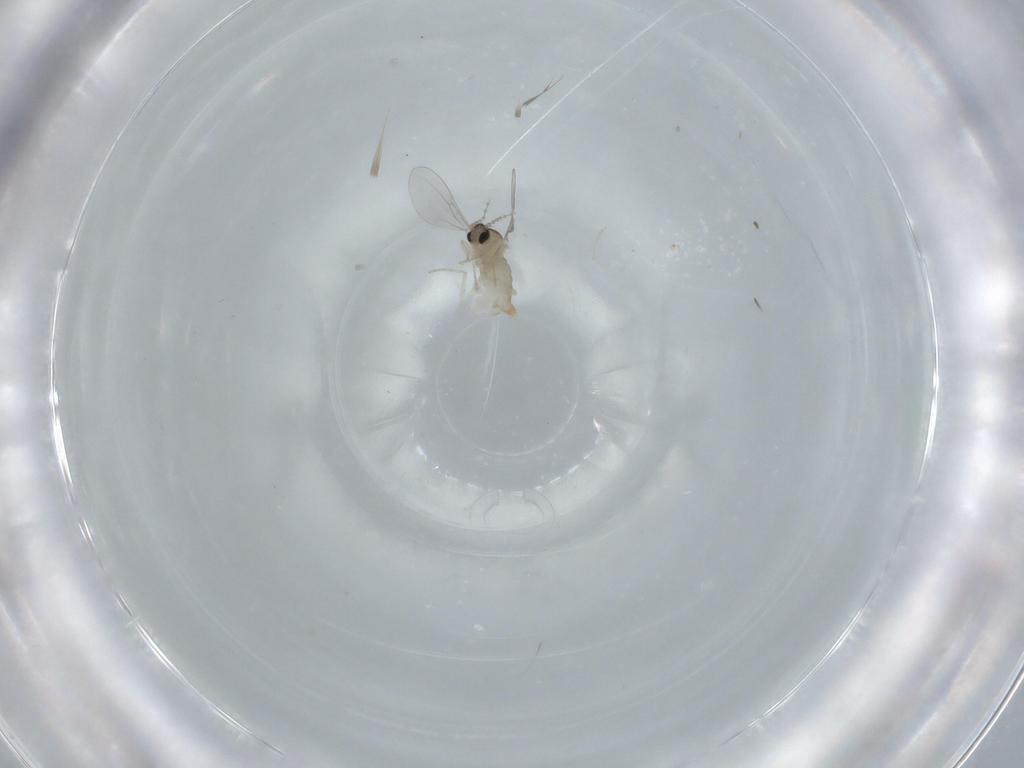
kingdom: Animalia
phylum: Arthropoda
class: Insecta
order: Diptera
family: Cecidomyiidae
